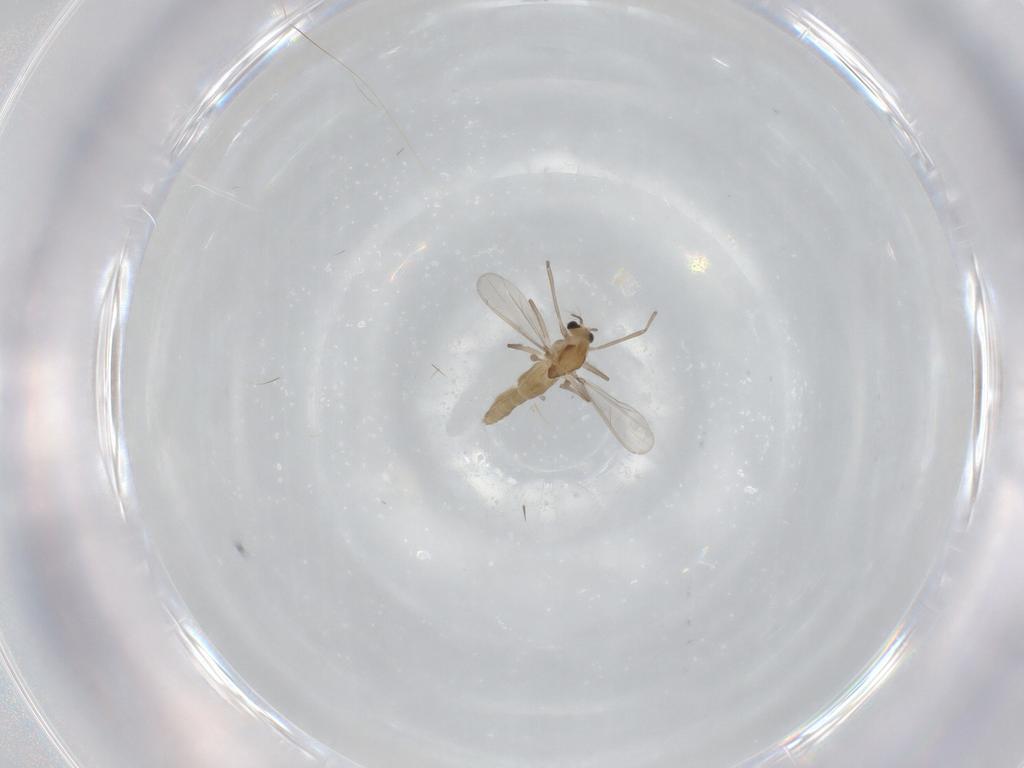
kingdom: Animalia
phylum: Arthropoda
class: Insecta
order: Diptera
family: Chironomidae
